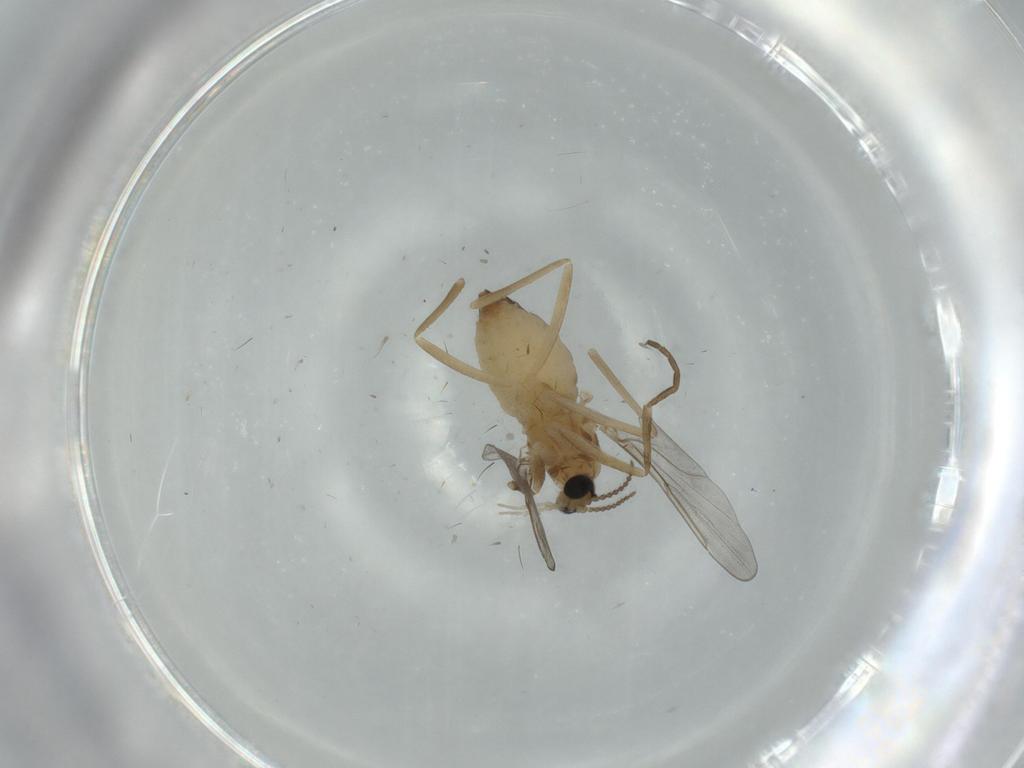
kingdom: Animalia
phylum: Arthropoda
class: Insecta
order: Diptera
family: Cecidomyiidae
